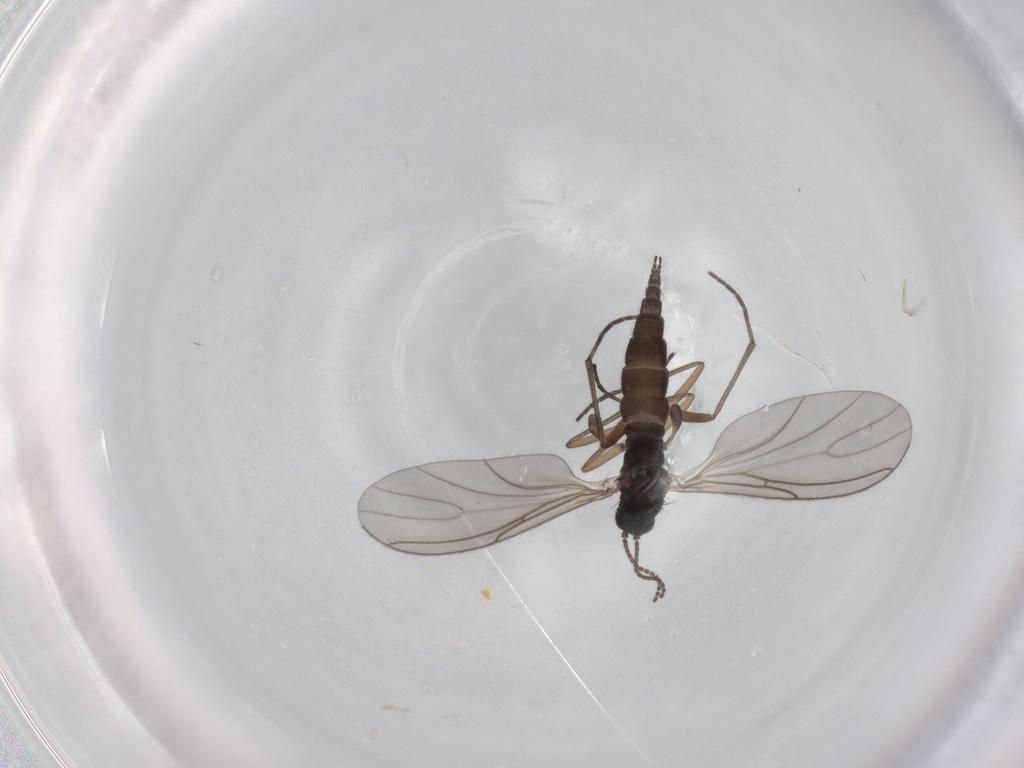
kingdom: Animalia
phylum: Arthropoda
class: Insecta
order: Diptera
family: Sciaridae
